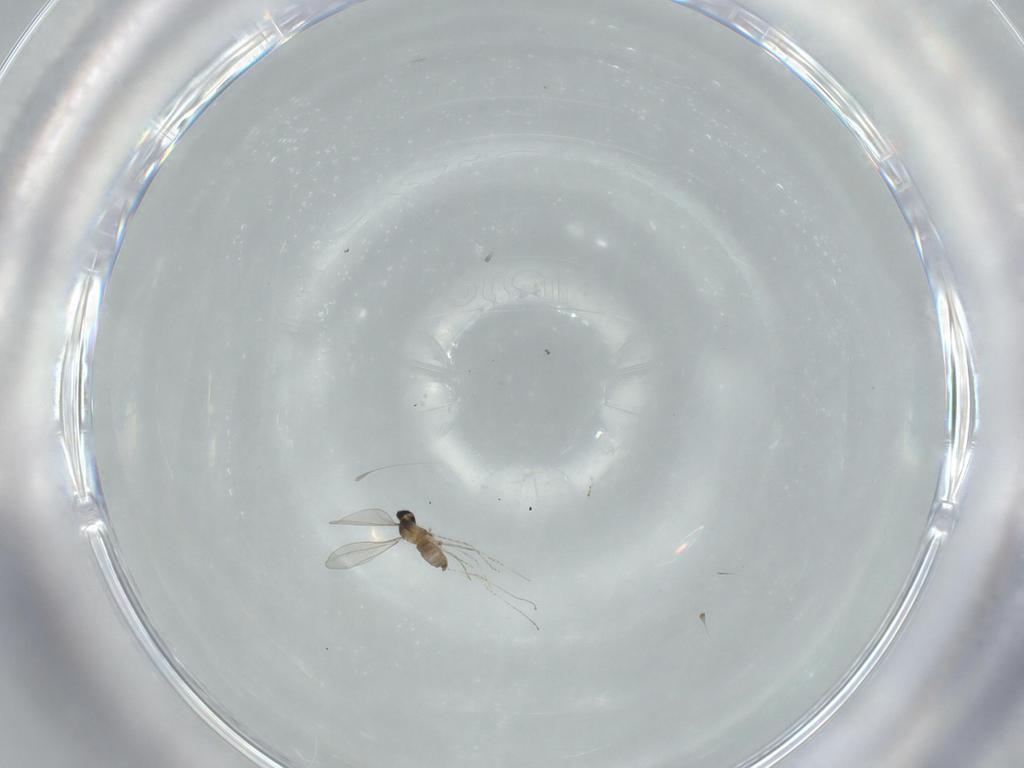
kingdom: Animalia
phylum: Arthropoda
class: Insecta
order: Diptera
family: Cecidomyiidae
